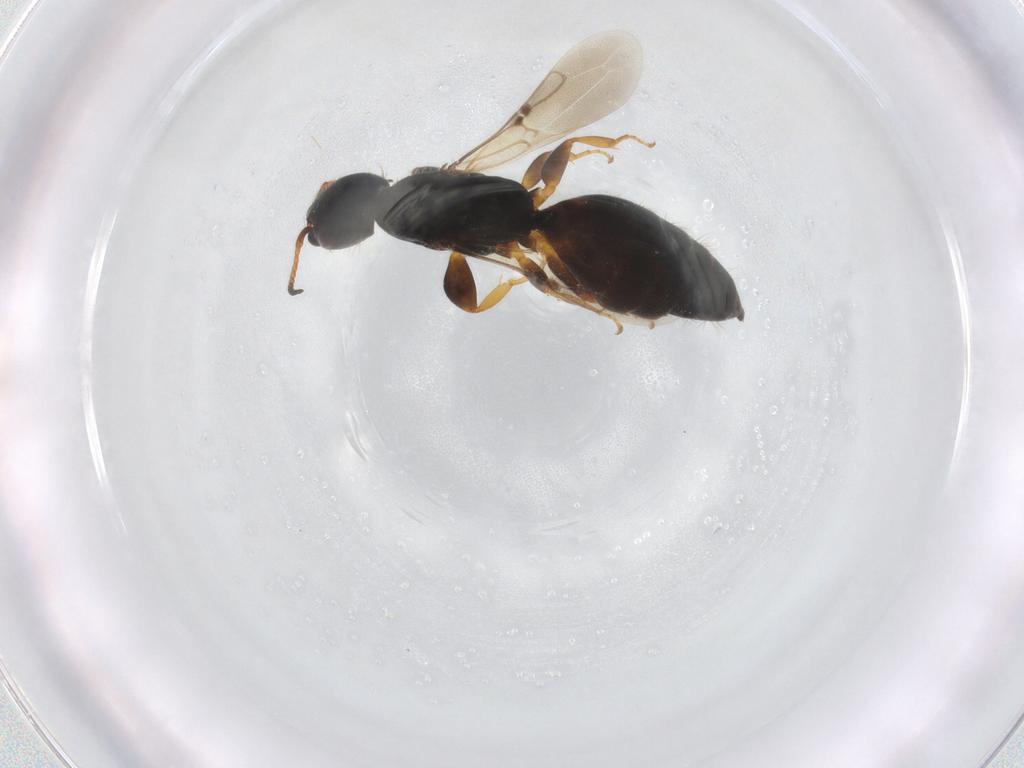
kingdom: Animalia
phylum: Arthropoda
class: Insecta
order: Hymenoptera
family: Bethylidae
